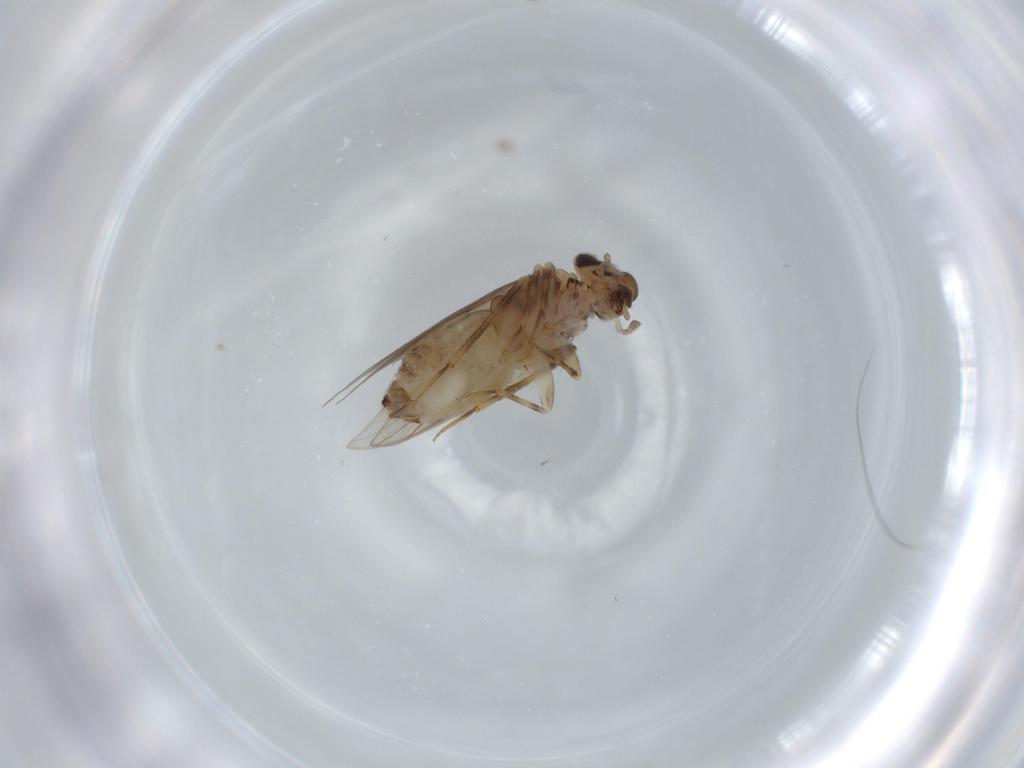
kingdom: Animalia
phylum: Arthropoda
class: Insecta
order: Psocodea
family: Lepidopsocidae
